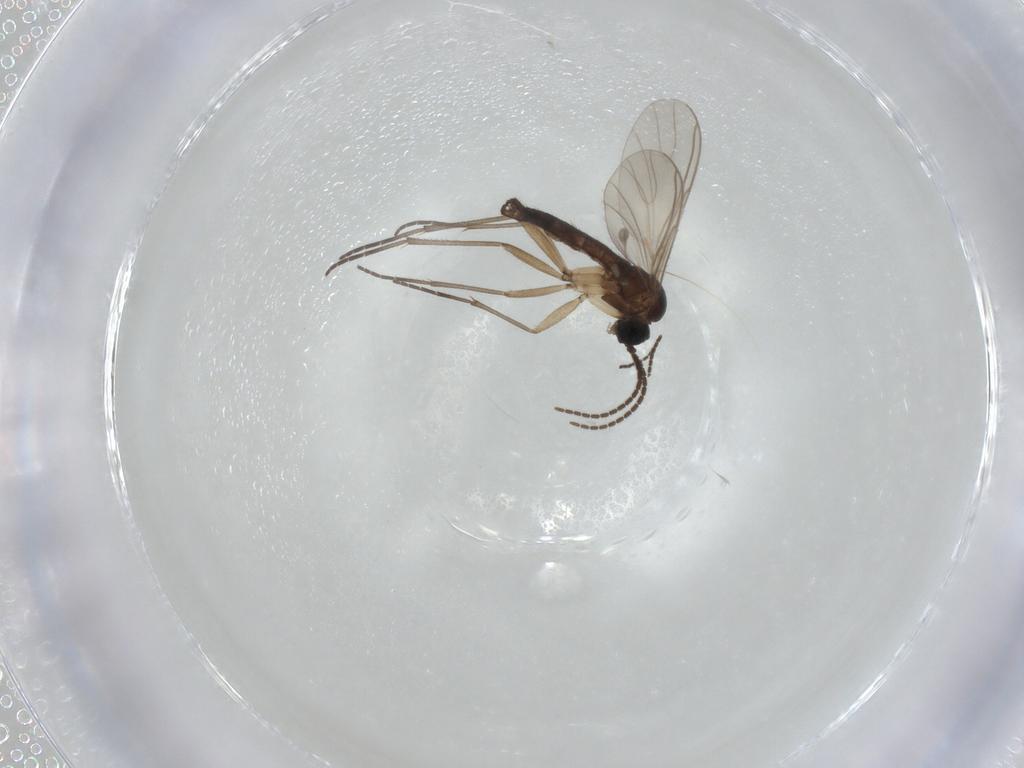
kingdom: Animalia
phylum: Arthropoda
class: Insecta
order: Diptera
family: Sciaridae
